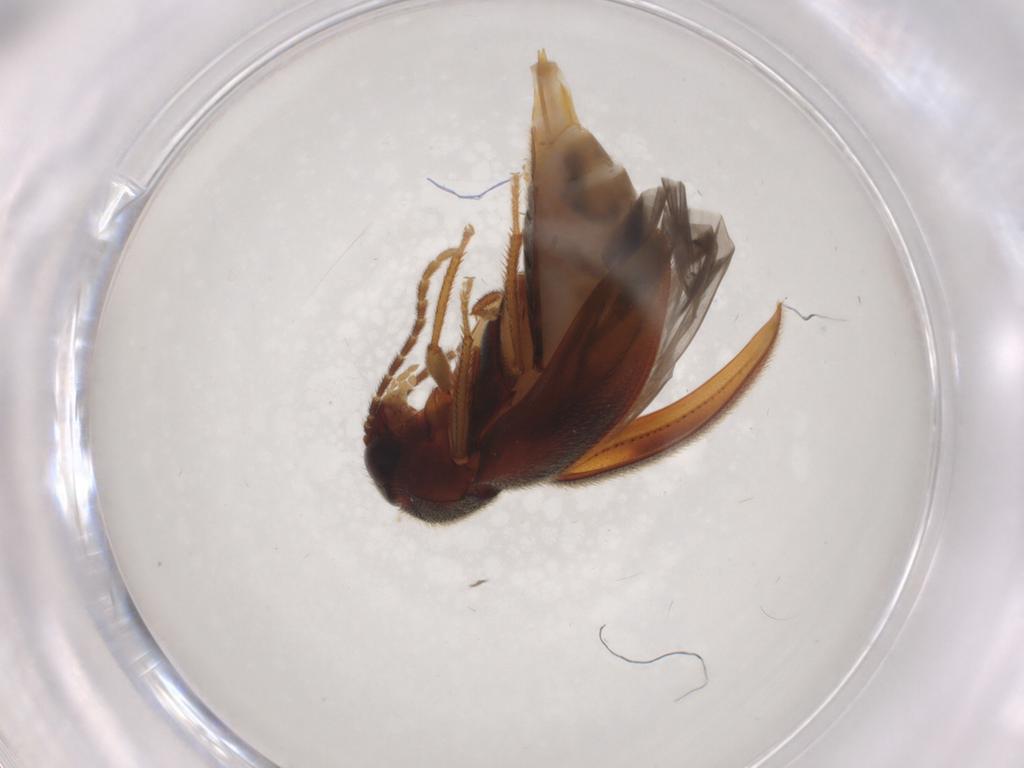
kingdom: Animalia
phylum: Arthropoda
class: Insecta
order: Coleoptera
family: Ptilodactylidae
